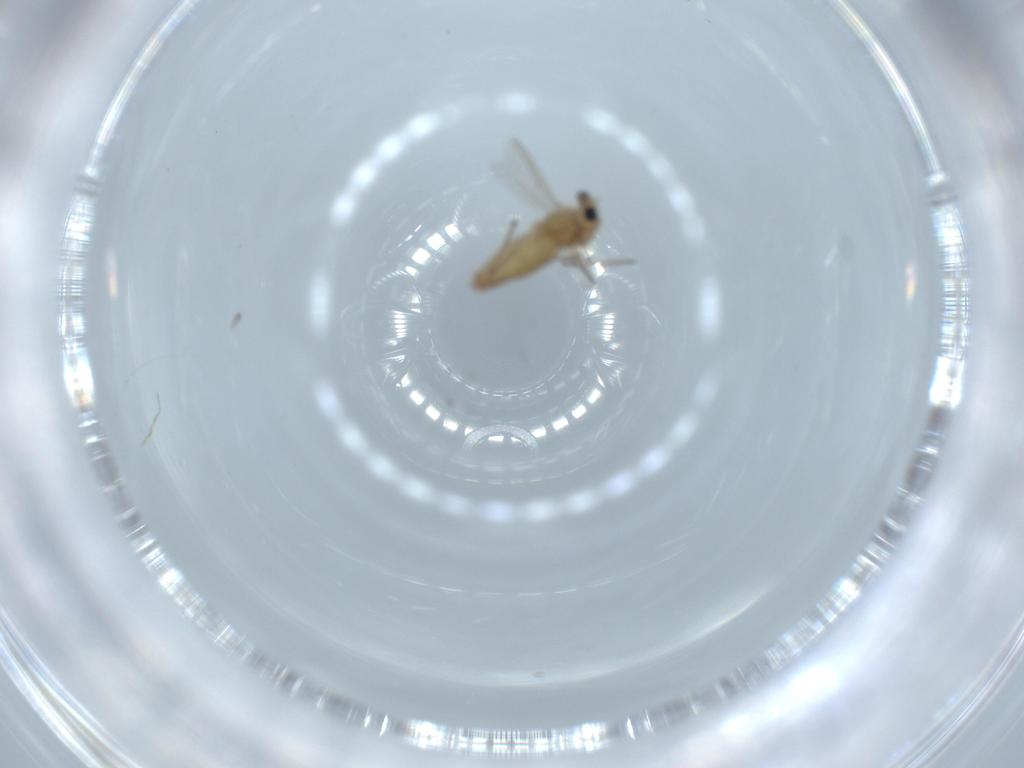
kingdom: Animalia
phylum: Arthropoda
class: Insecta
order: Diptera
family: Chironomidae
